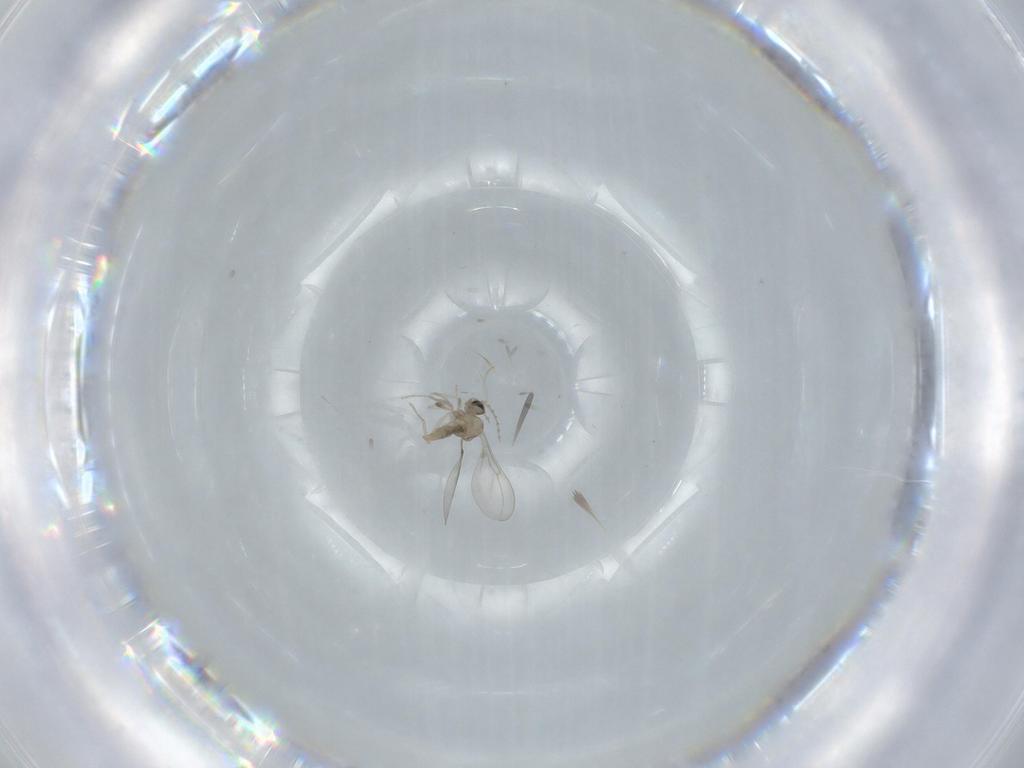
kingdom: Animalia
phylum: Arthropoda
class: Insecta
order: Diptera
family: Cecidomyiidae
